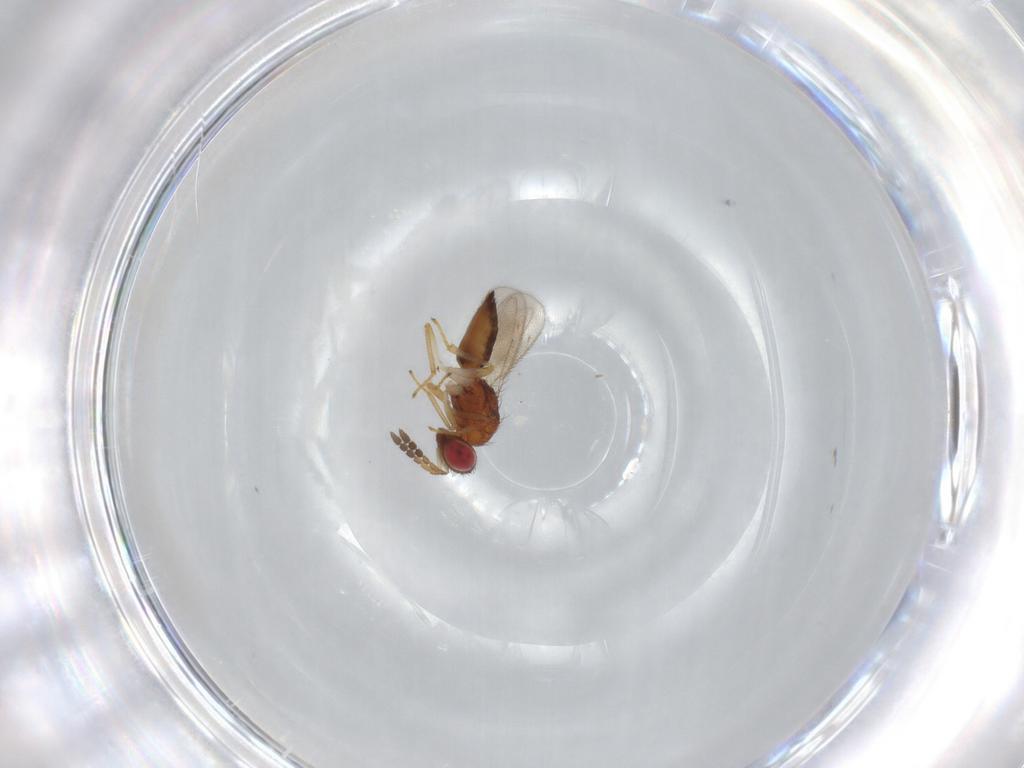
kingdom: Animalia
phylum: Arthropoda
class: Insecta
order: Hymenoptera
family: Eulophidae
